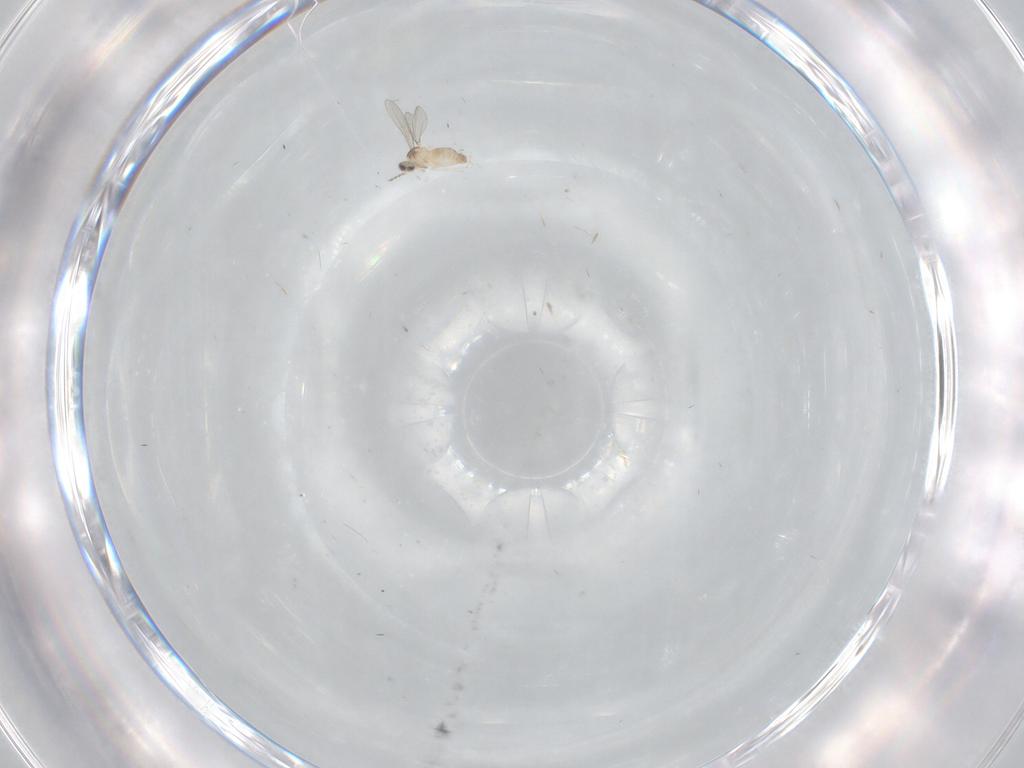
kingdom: Animalia
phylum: Arthropoda
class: Insecta
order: Diptera
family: Cecidomyiidae
